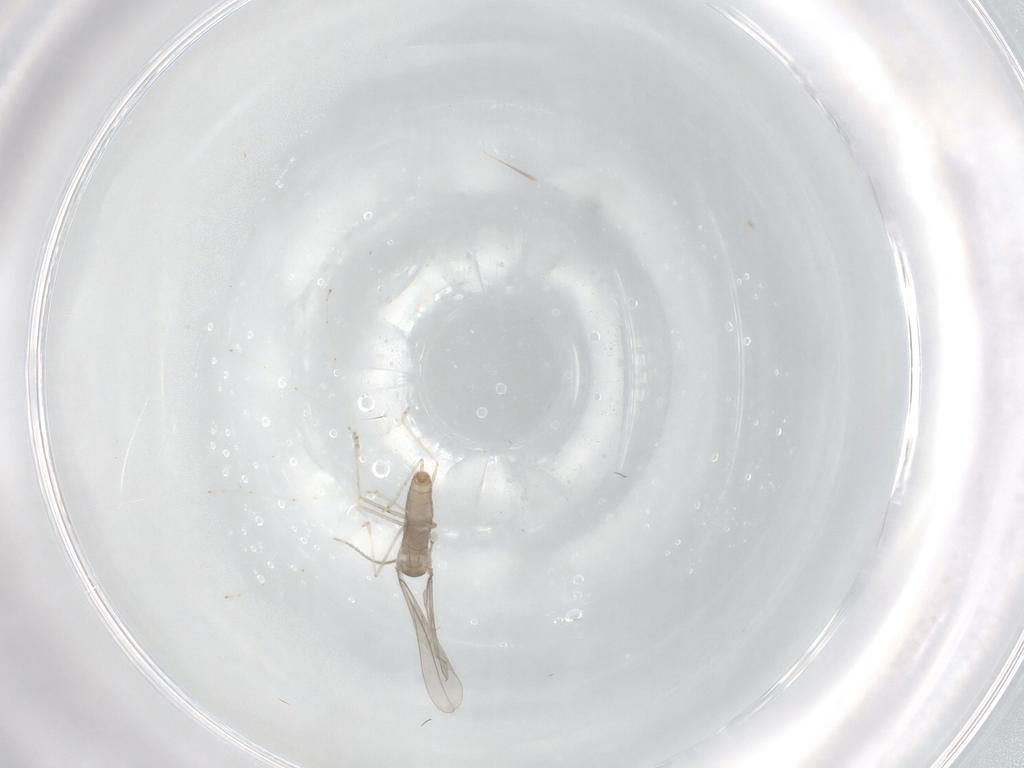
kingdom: Animalia
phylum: Arthropoda
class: Insecta
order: Diptera
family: Cecidomyiidae
